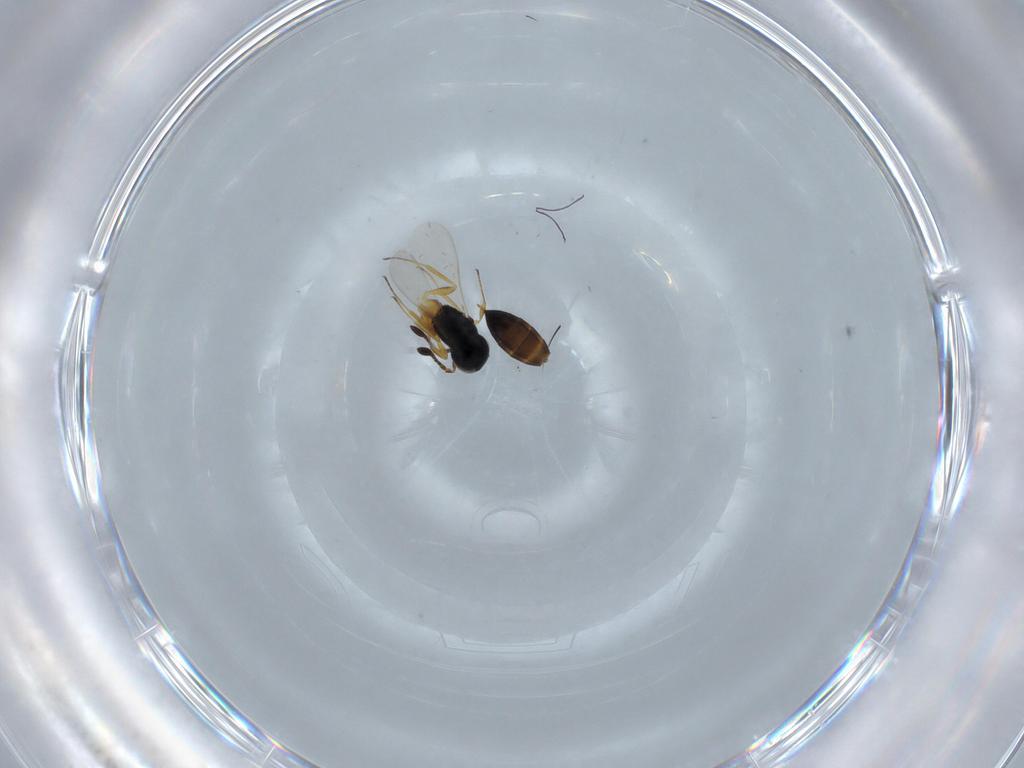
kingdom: Animalia
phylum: Arthropoda
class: Insecta
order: Hymenoptera
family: Scelionidae
